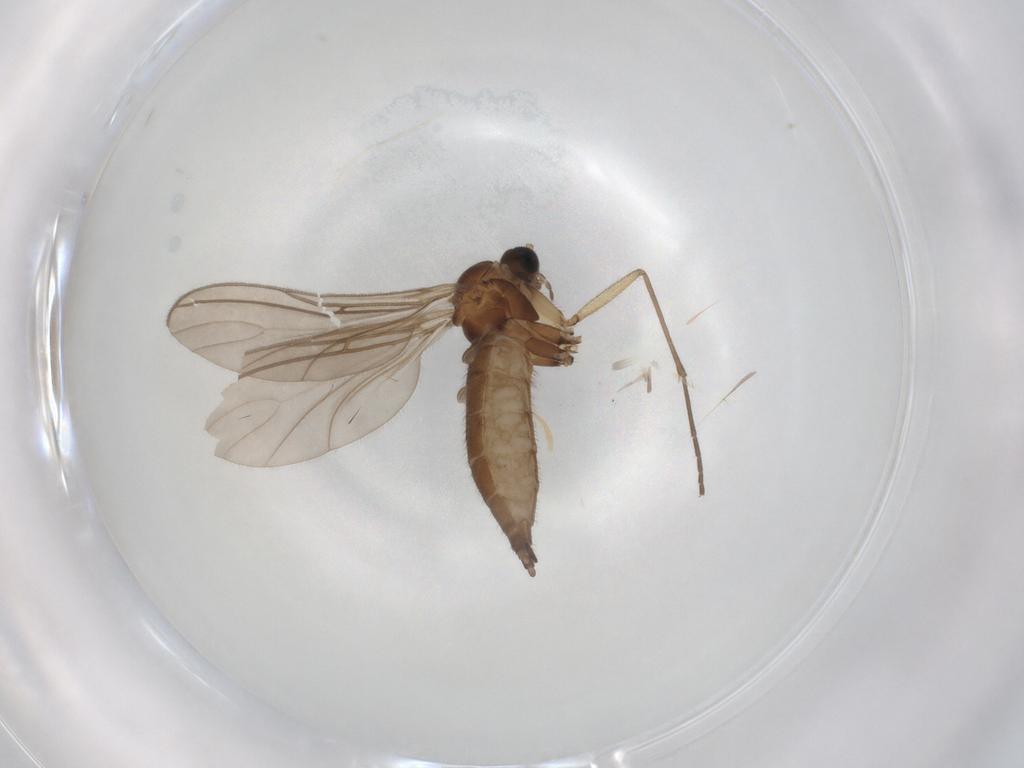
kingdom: Animalia
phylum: Arthropoda
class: Insecta
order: Diptera
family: Sciaridae
